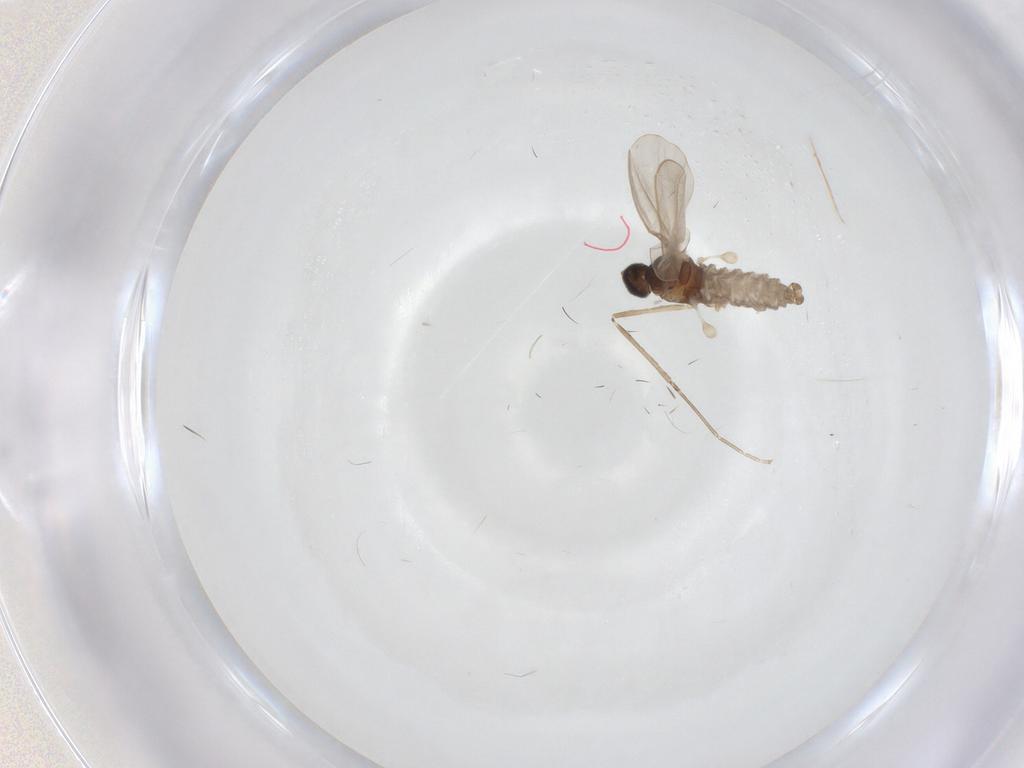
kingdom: Animalia
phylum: Arthropoda
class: Insecta
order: Diptera
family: Cecidomyiidae
